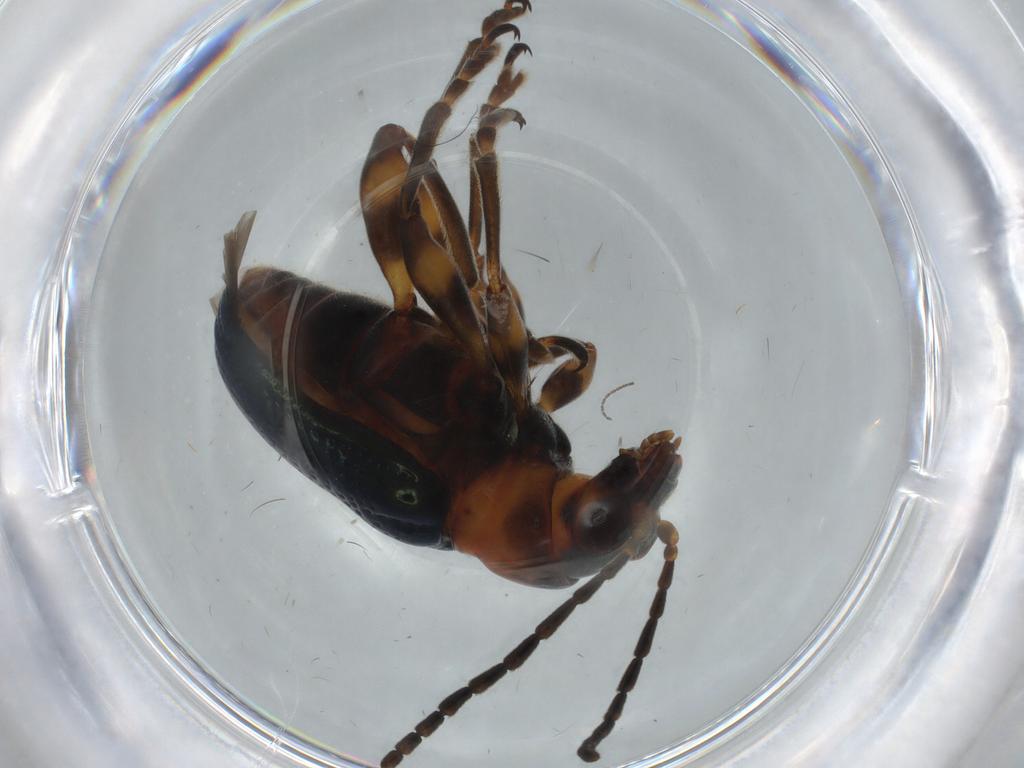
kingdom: Animalia
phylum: Arthropoda
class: Insecta
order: Coleoptera
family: Chrysomelidae
